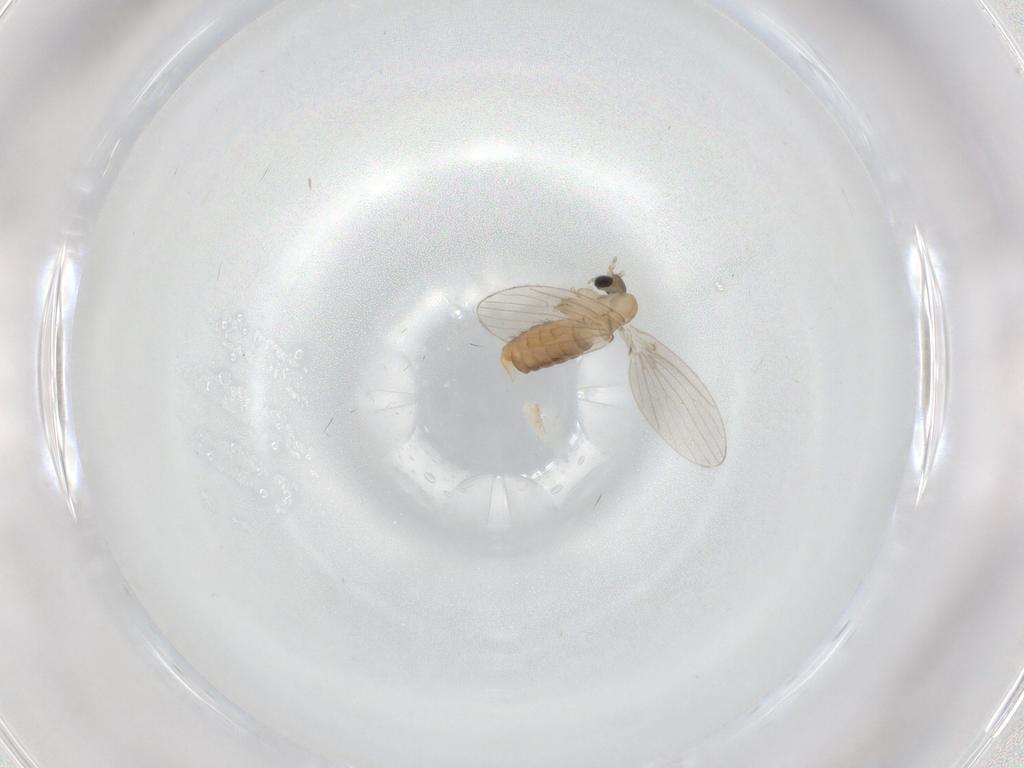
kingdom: Animalia
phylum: Arthropoda
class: Insecta
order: Diptera
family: Psychodidae
